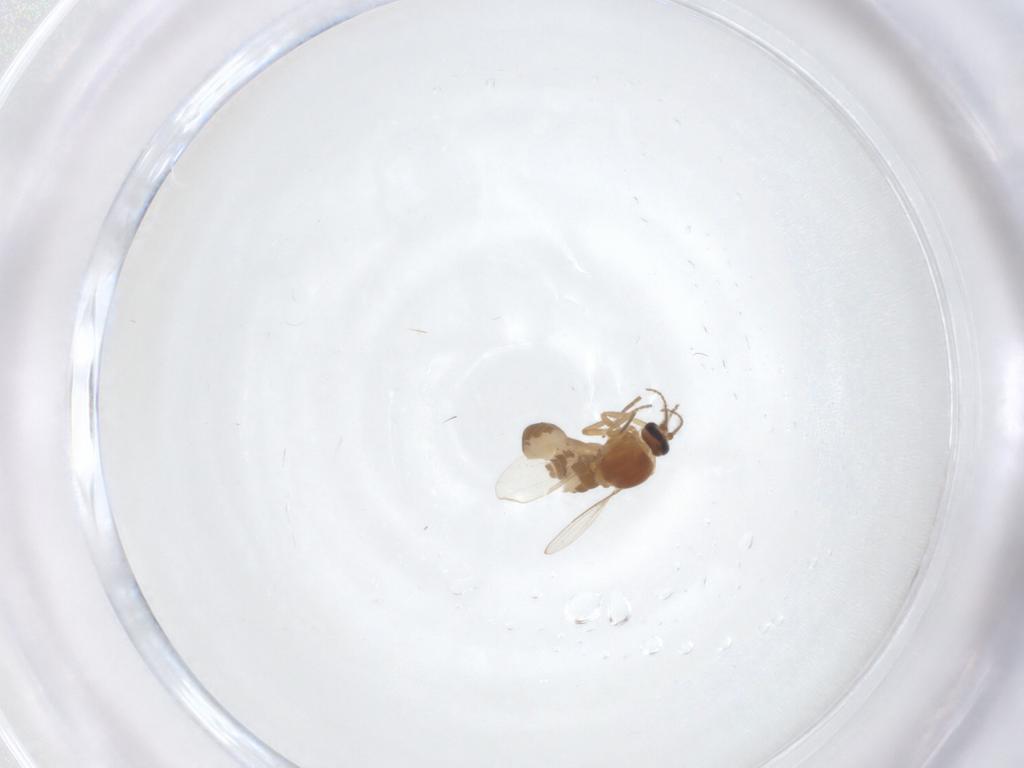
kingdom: Animalia
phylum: Arthropoda
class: Insecta
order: Diptera
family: Ceratopogonidae
